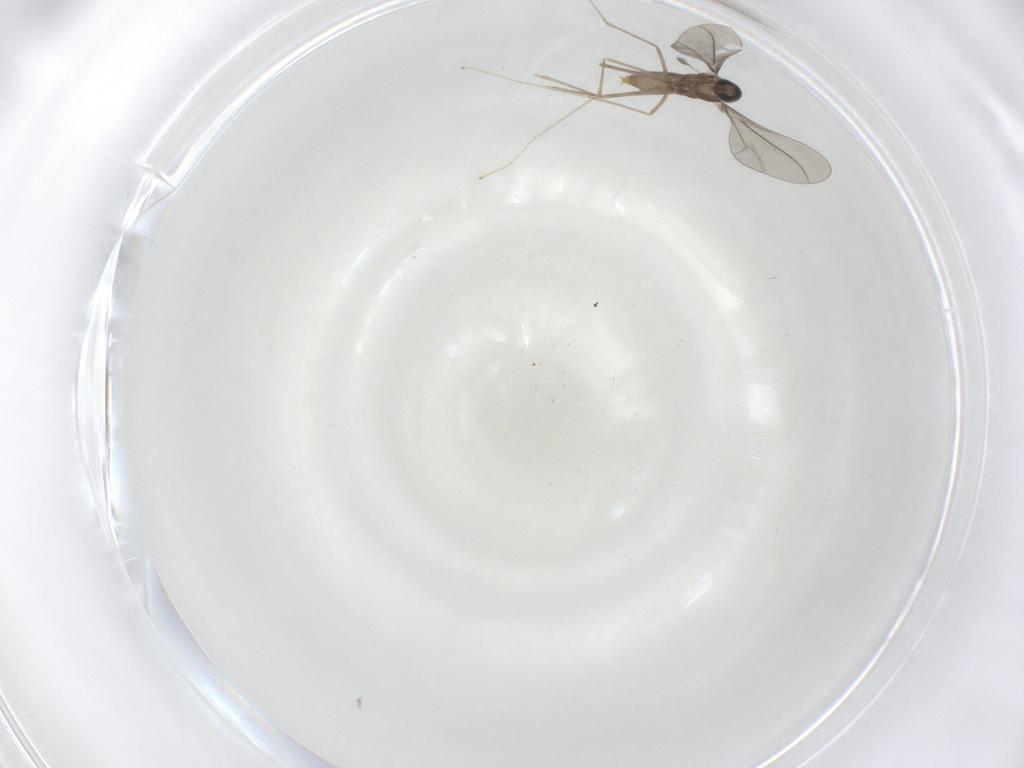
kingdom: Animalia
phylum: Arthropoda
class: Insecta
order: Diptera
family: Cecidomyiidae
